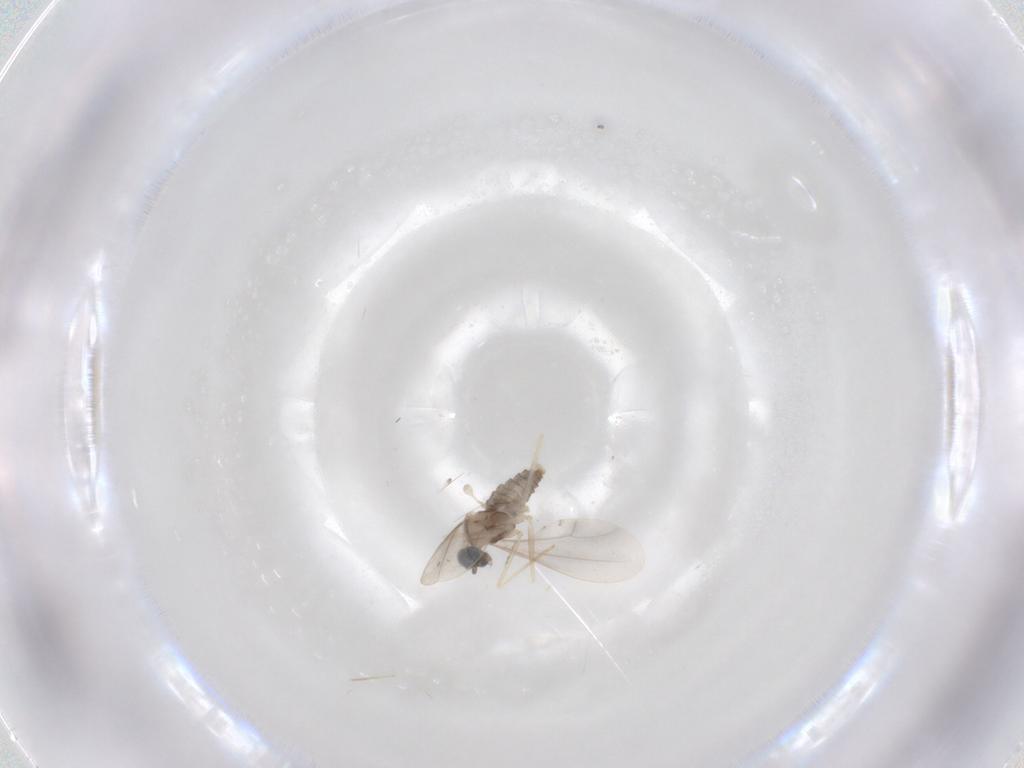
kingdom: Animalia
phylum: Arthropoda
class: Insecta
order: Diptera
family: Cecidomyiidae
